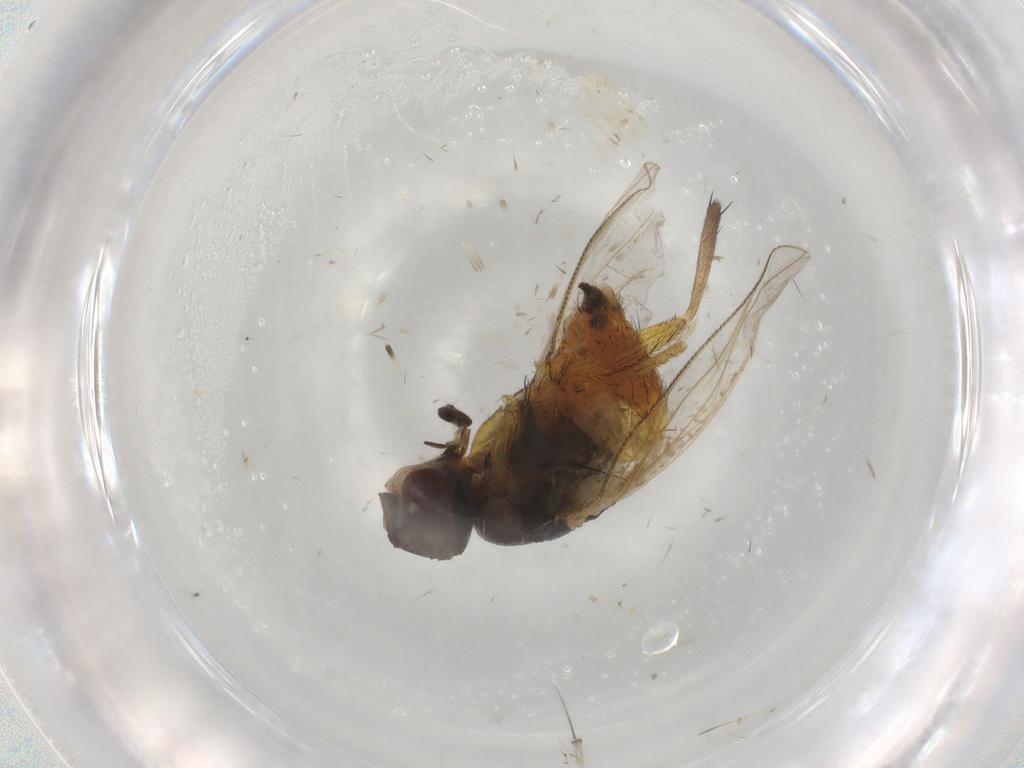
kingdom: Animalia
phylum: Arthropoda
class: Insecta
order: Diptera
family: Muscidae
